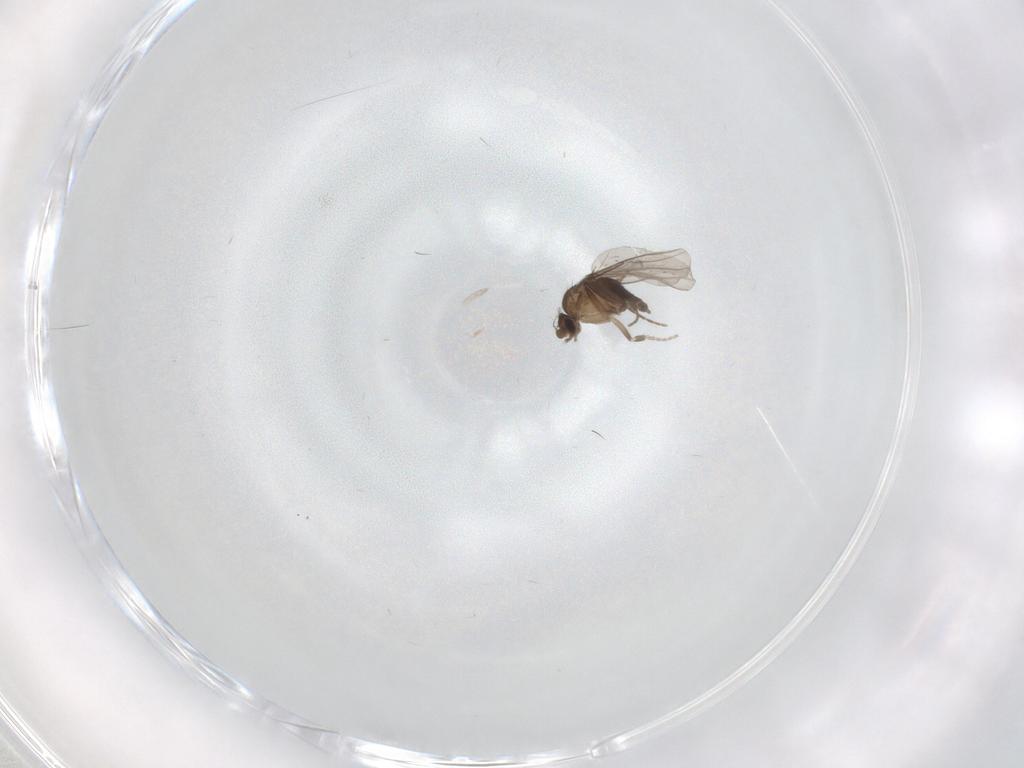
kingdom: Animalia
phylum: Arthropoda
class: Insecta
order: Diptera
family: Cecidomyiidae
